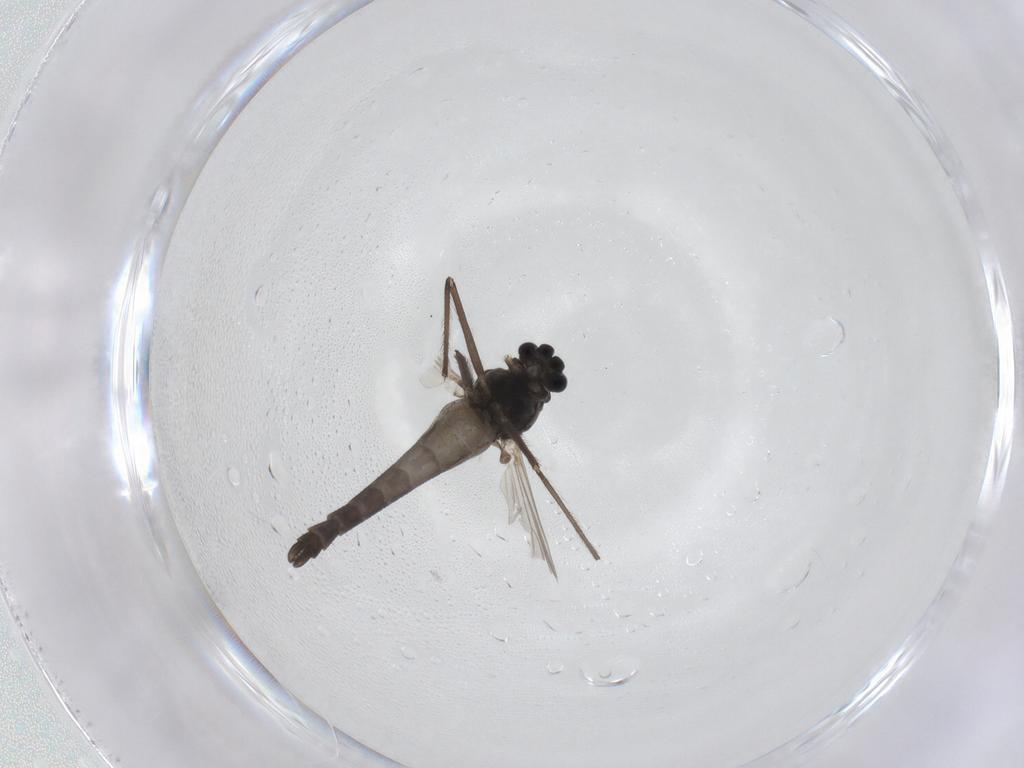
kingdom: Animalia
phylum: Arthropoda
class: Insecta
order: Diptera
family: Chironomidae
